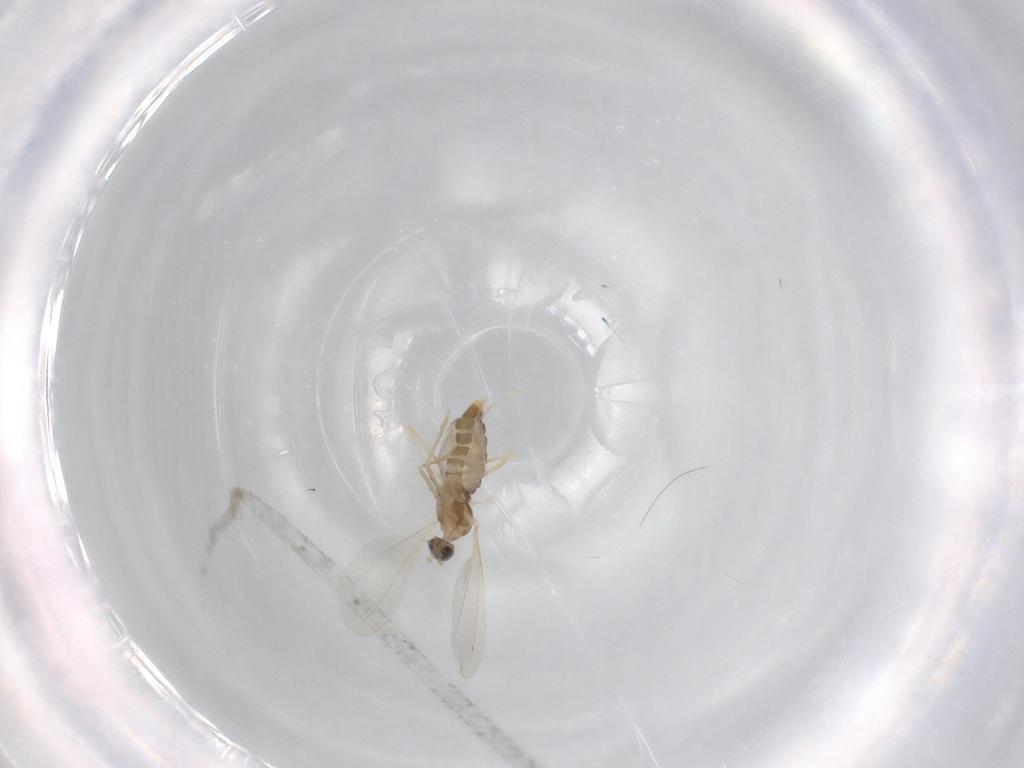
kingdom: Animalia
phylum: Arthropoda
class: Insecta
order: Diptera
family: Cecidomyiidae
